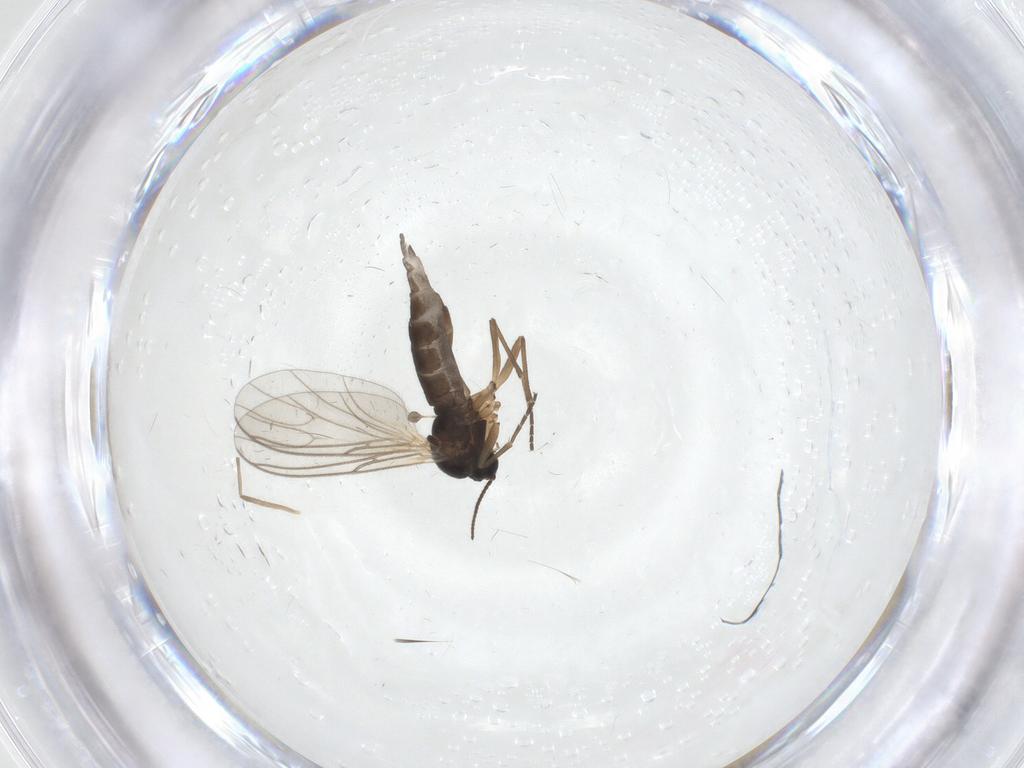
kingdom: Animalia
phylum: Arthropoda
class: Insecta
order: Diptera
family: Chironomidae
